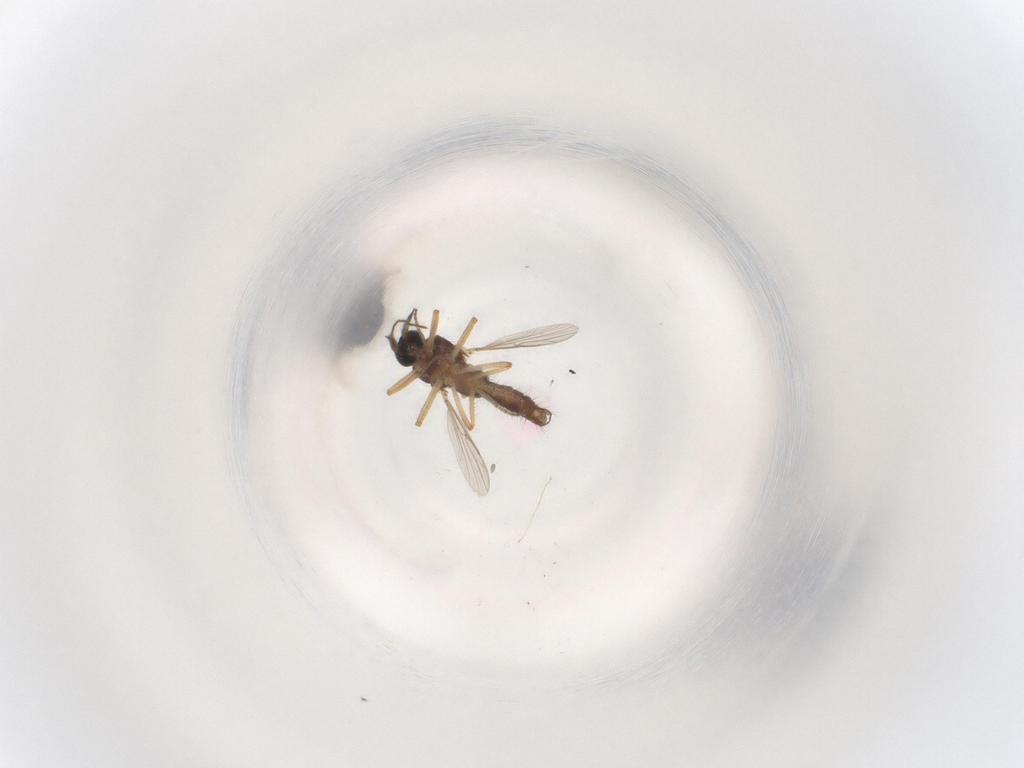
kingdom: Animalia
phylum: Arthropoda
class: Insecta
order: Diptera
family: Ceratopogonidae
